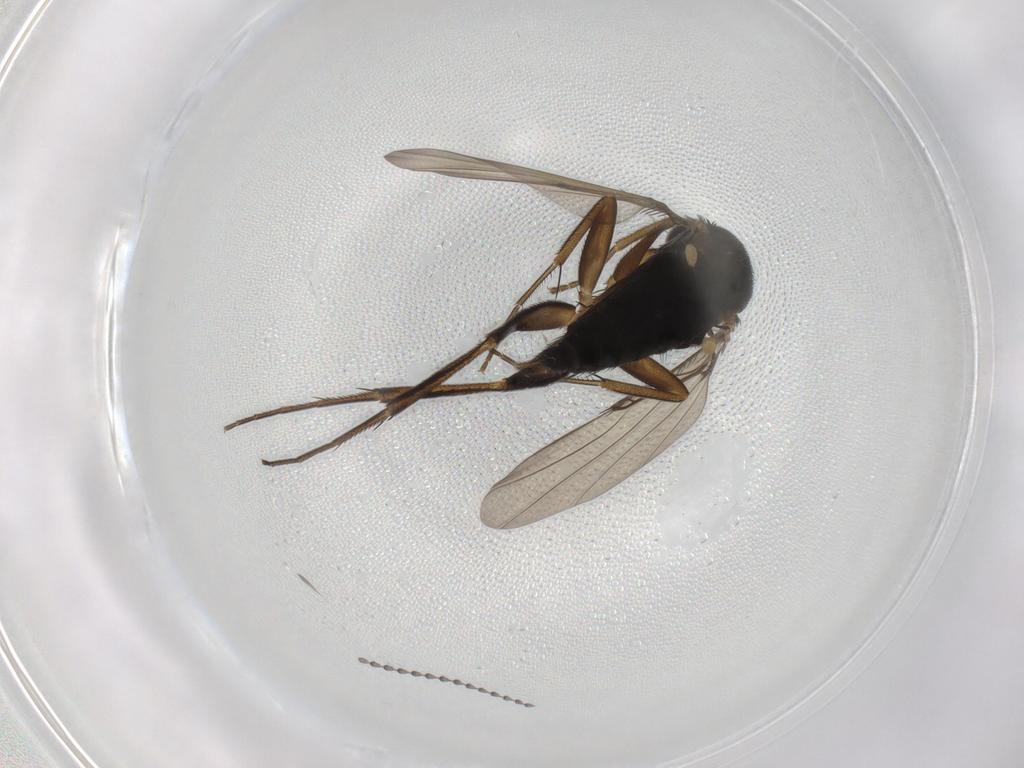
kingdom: Animalia
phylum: Arthropoda
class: Insecta
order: Diptera
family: Phoridae
